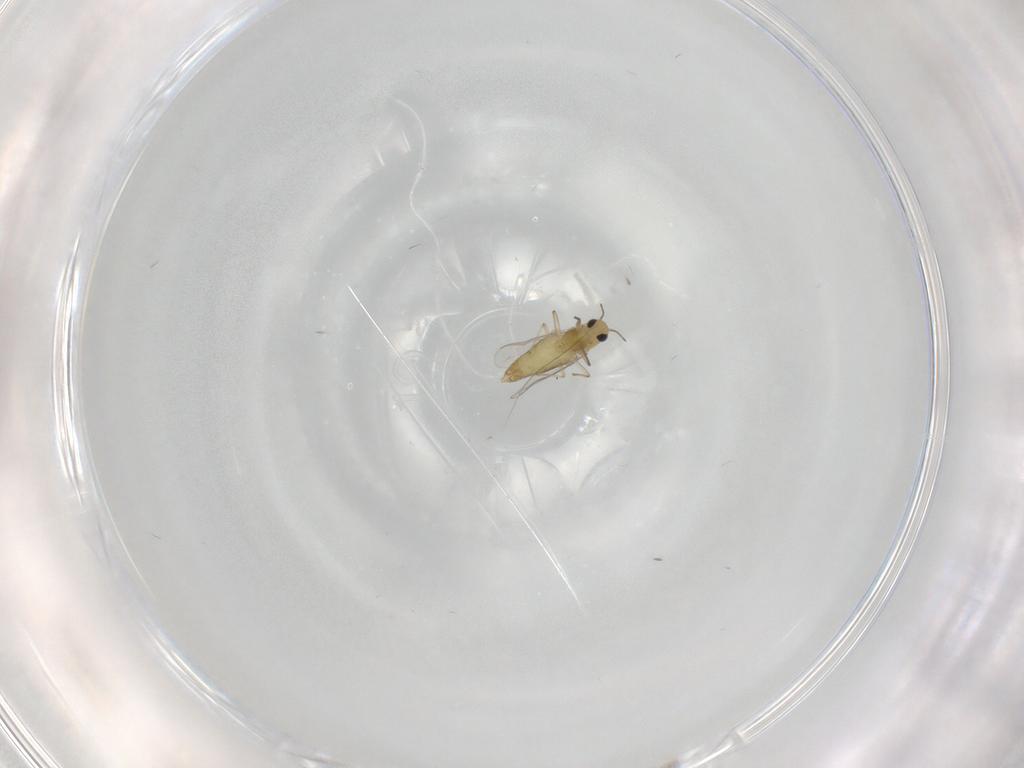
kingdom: Animalia
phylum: Arthropoda
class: Insecta
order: Diptera
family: Chironomidae
